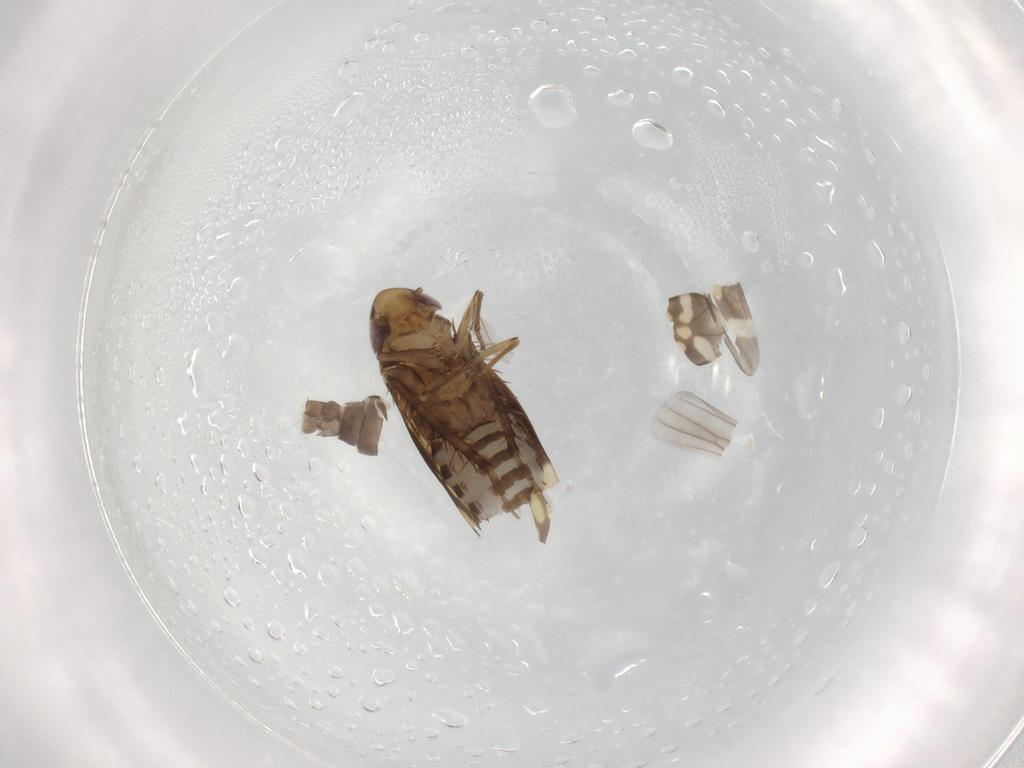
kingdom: Animalia
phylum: Arthropoda
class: Insecta
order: Hemiptera
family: Cicadellidae
